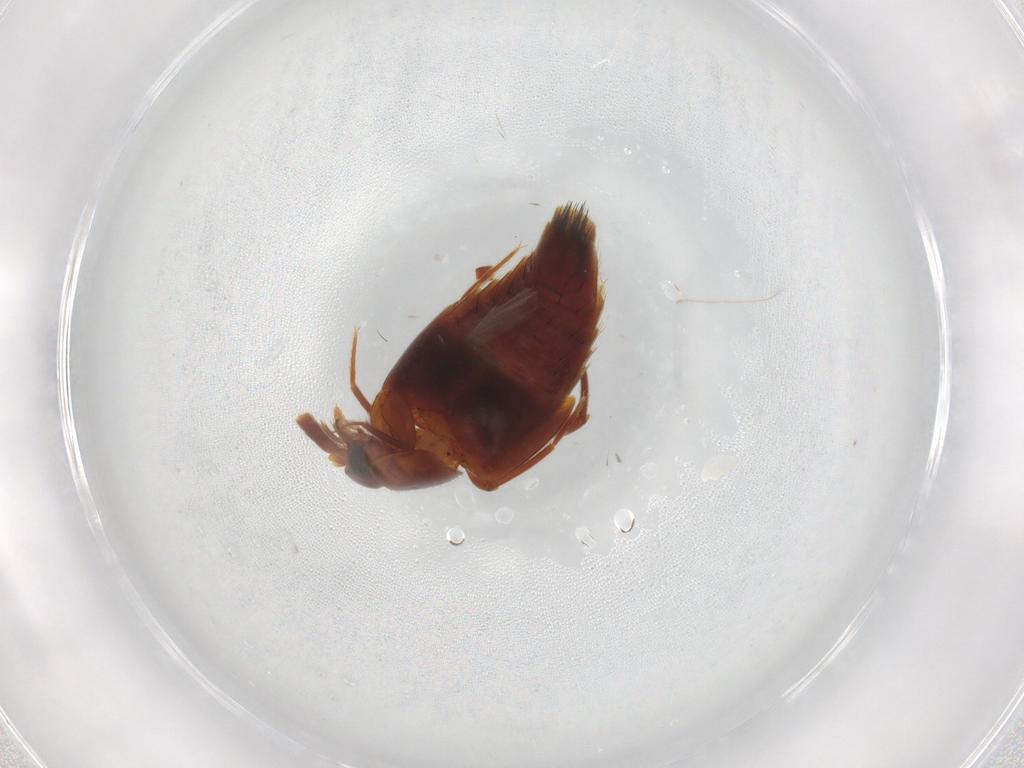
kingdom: Animalia
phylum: Arthropoda
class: Insecta
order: Coleoptera
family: Staphylinidae
